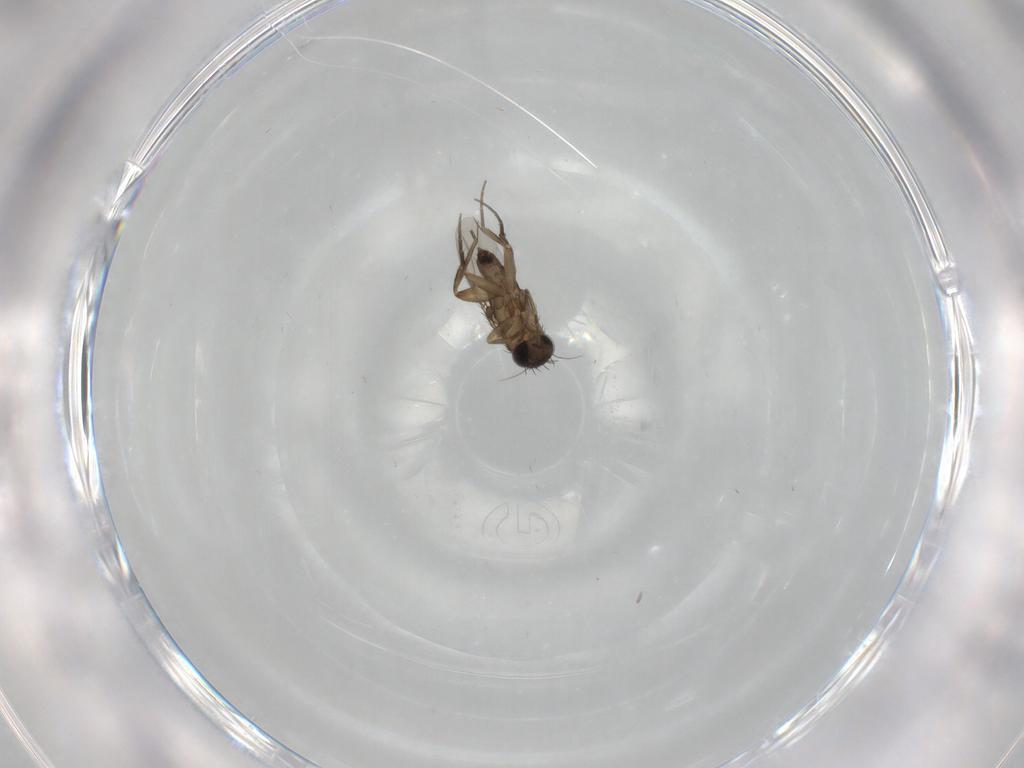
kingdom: Animalia
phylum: Arthropoda
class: Insecta
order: Diptera
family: Phoridae
